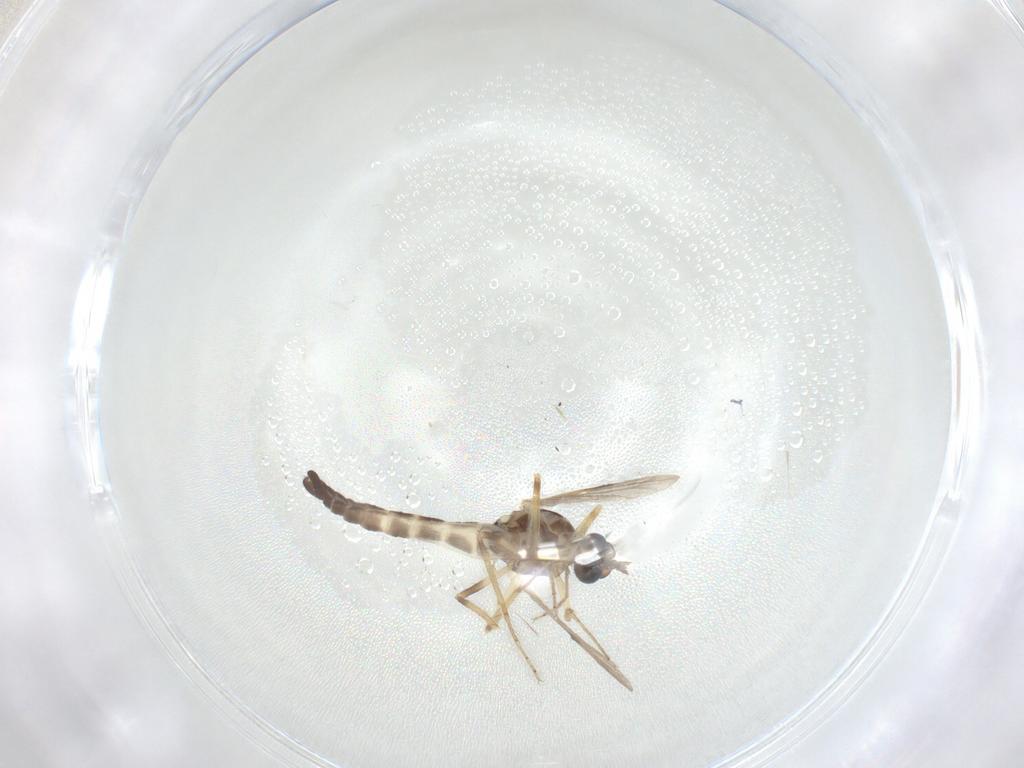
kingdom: Animalia
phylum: Arthropoda
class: Insecta
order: Diptera
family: Ceratopogonidae
